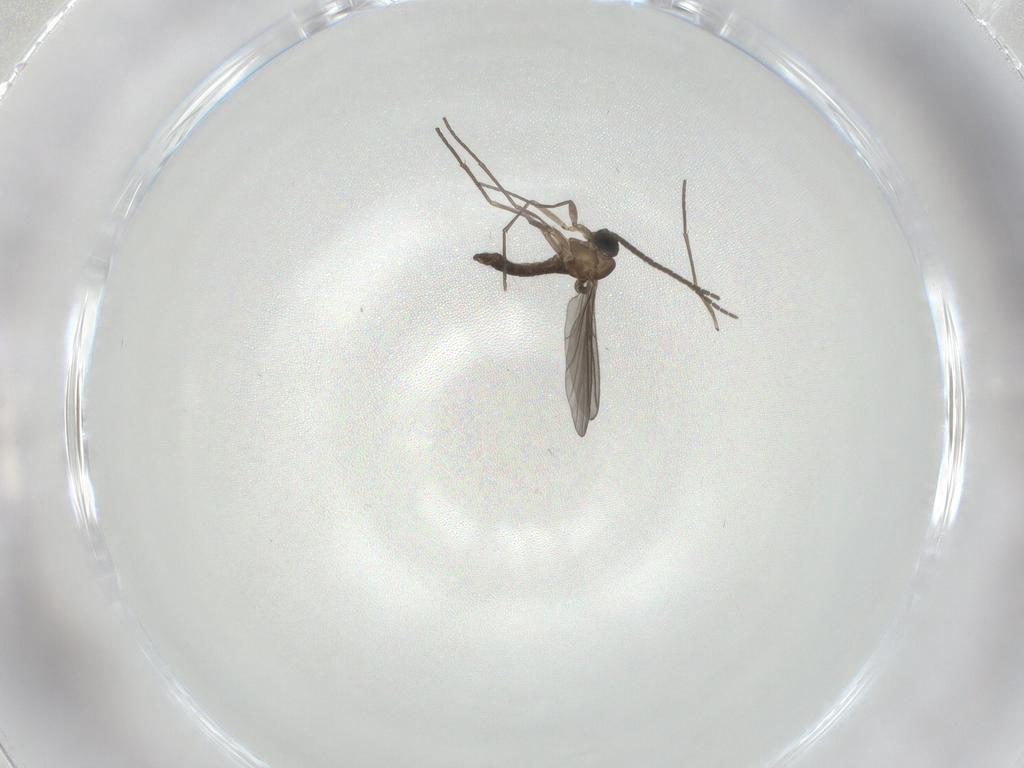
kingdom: Animalia
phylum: Arthropoda
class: Insecta
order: Diptera
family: Sciaridae
